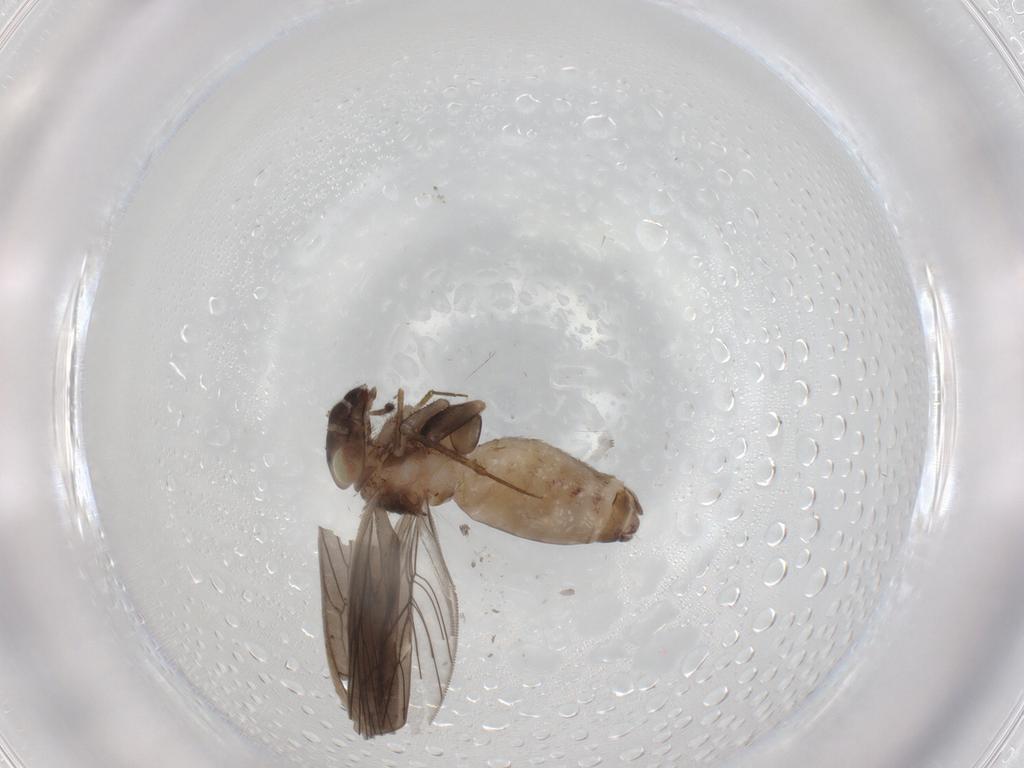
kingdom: Animalia
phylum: Arthropoda
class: Insecta
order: Psocodea
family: Lepidopsocidae
